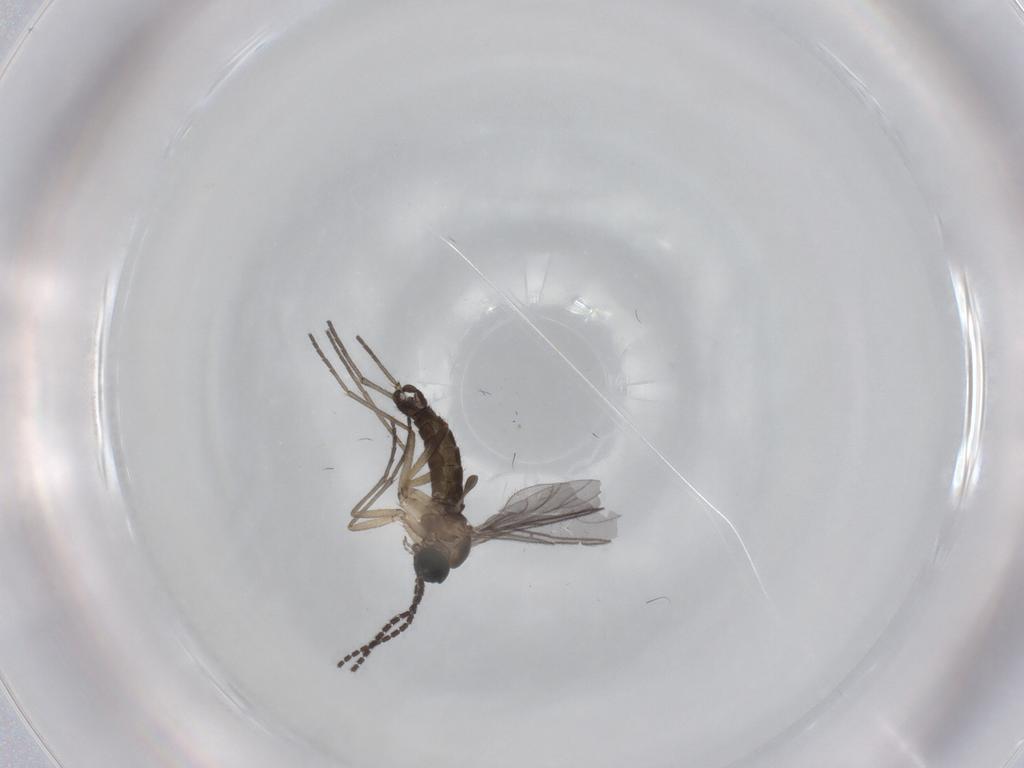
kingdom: Animalia
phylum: Arthropoda
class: Insecta
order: Diptera
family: Sciaridae
